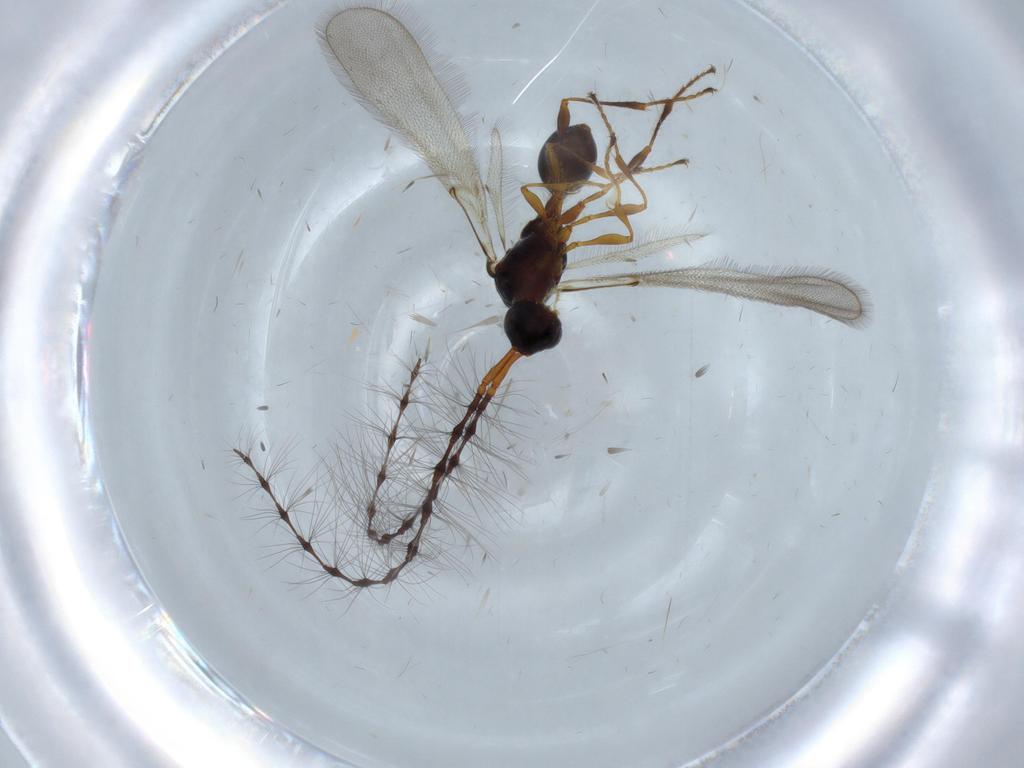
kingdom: Animalia
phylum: Arthropoda
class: Insecta
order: Hymenoptera
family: Diapriidae
